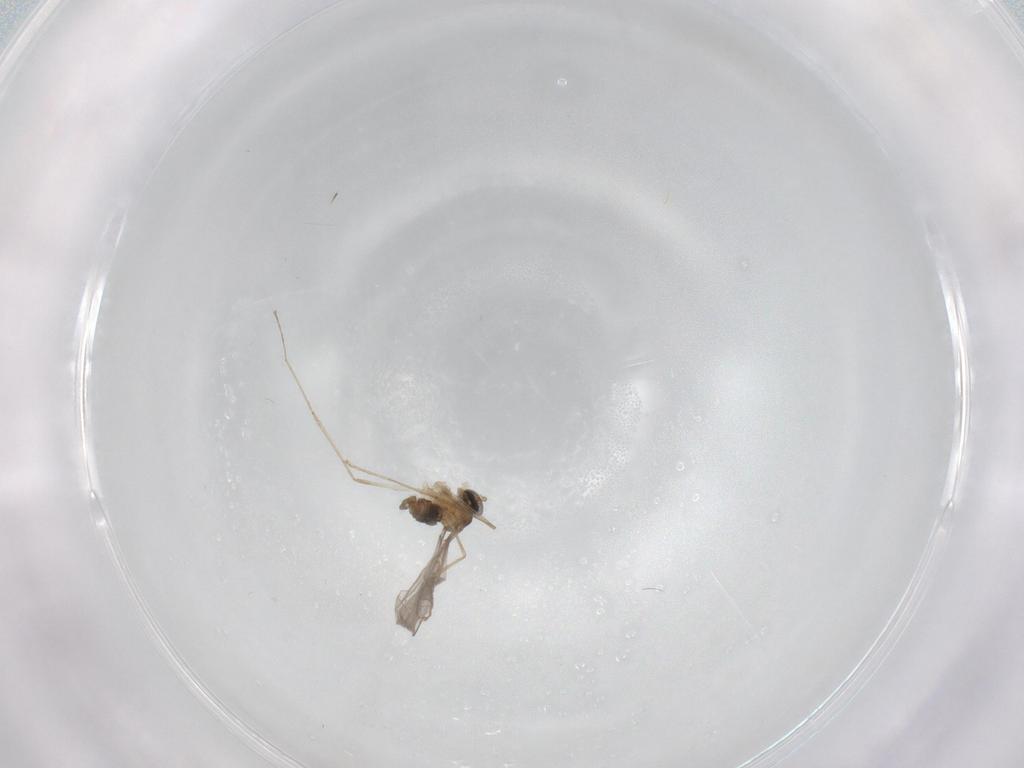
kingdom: Animalia
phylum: Arthropoda
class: Insecta
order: Diptera
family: Cecidomyiidae
